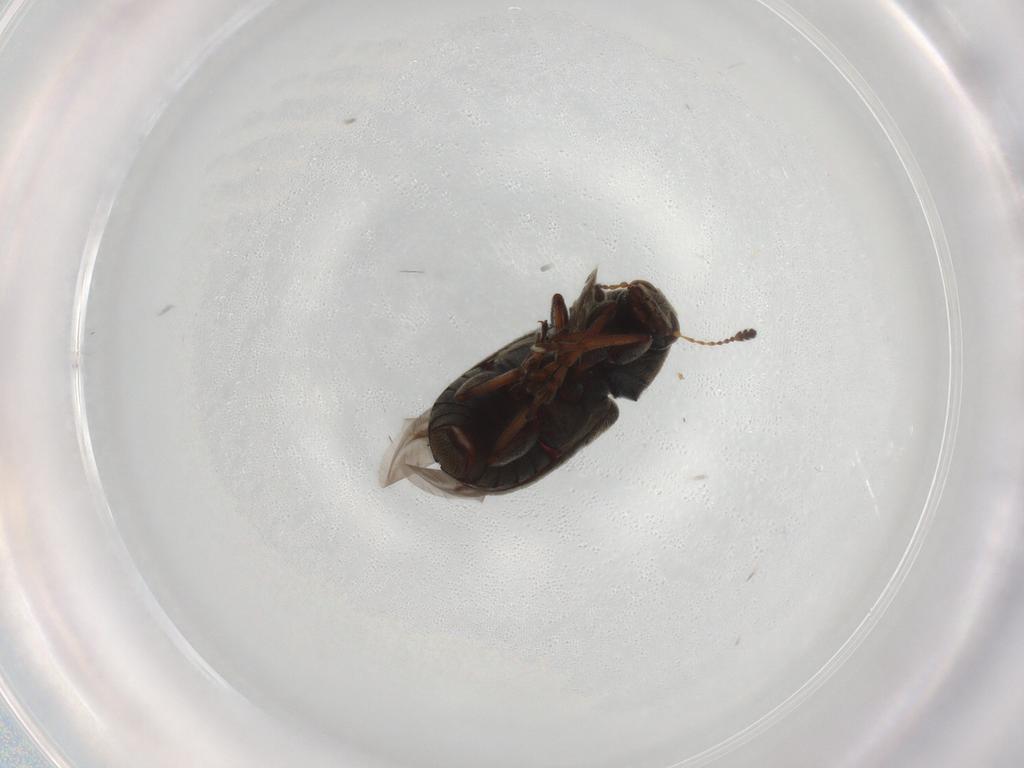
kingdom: Animalia
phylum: Arthropoda
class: Insecta
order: Coleoptera
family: Anthribidae
